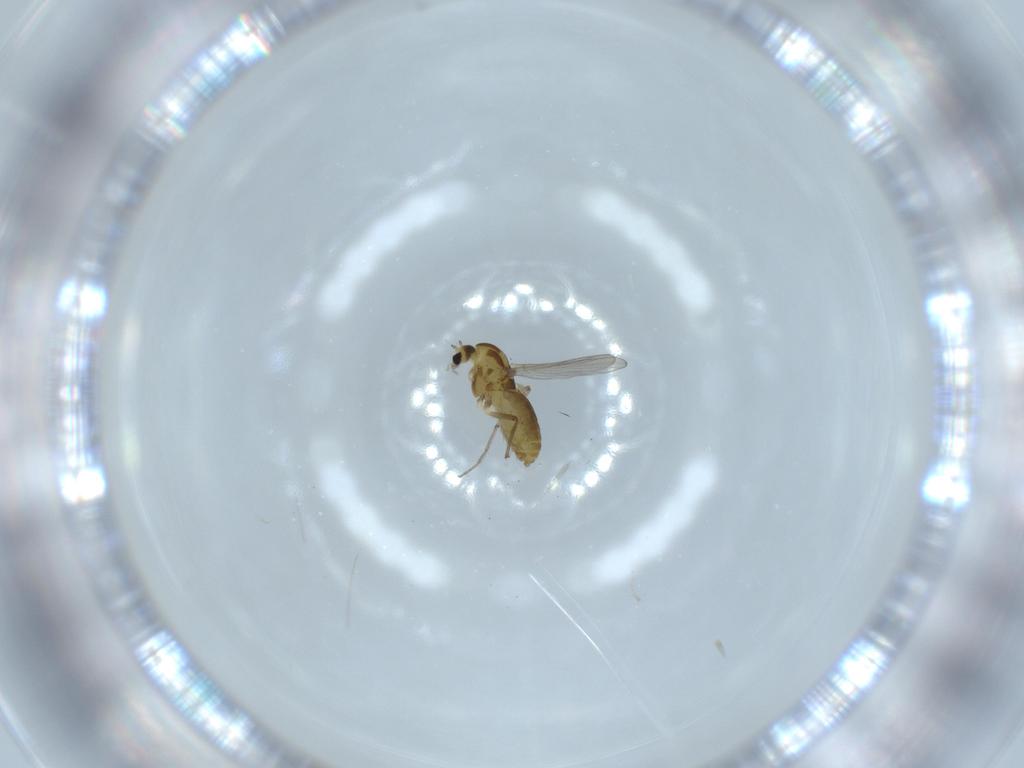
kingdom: Animalia
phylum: Arthropoda
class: Insecta
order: Diptera
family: Chironomidae
